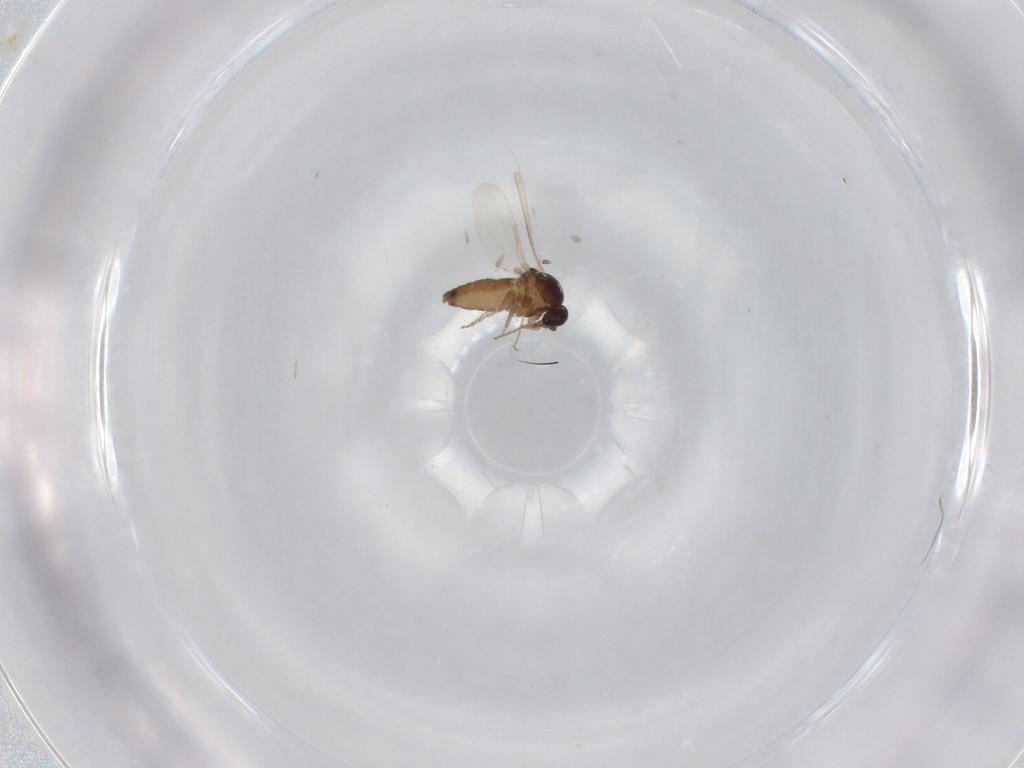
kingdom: Animalia
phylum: Arthropoda
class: Insecta
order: Diptera
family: Ceratopogonidae
